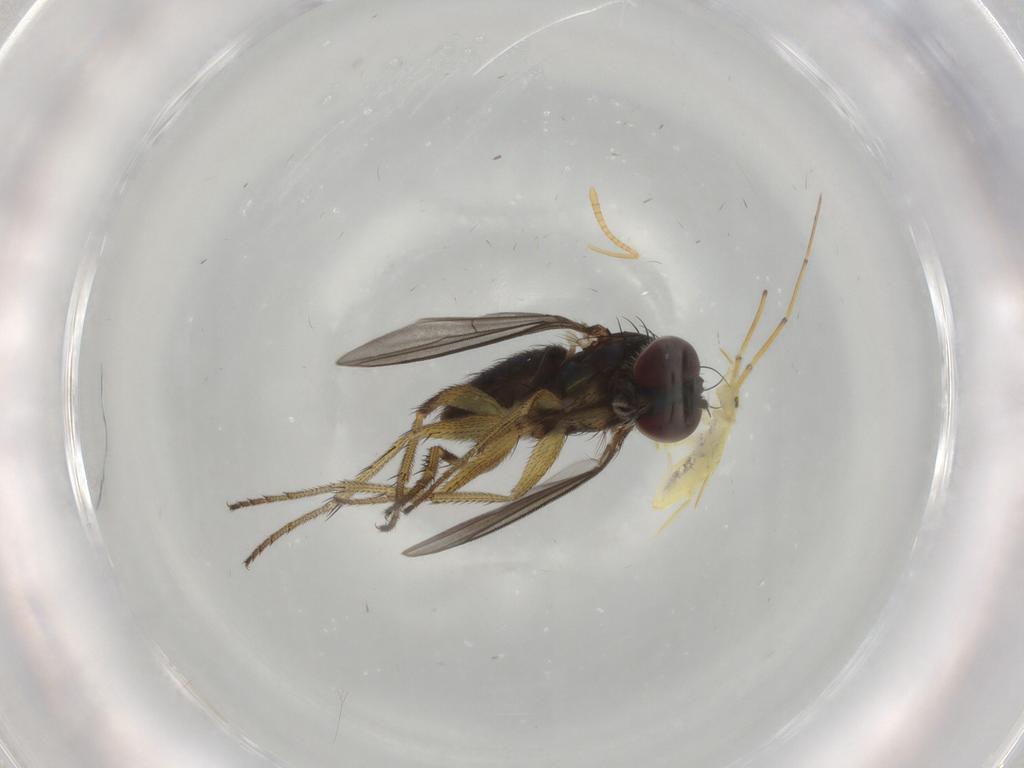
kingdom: Animalia
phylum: Arthropoda
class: Insecta
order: Diptera
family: Dolichopodidae
